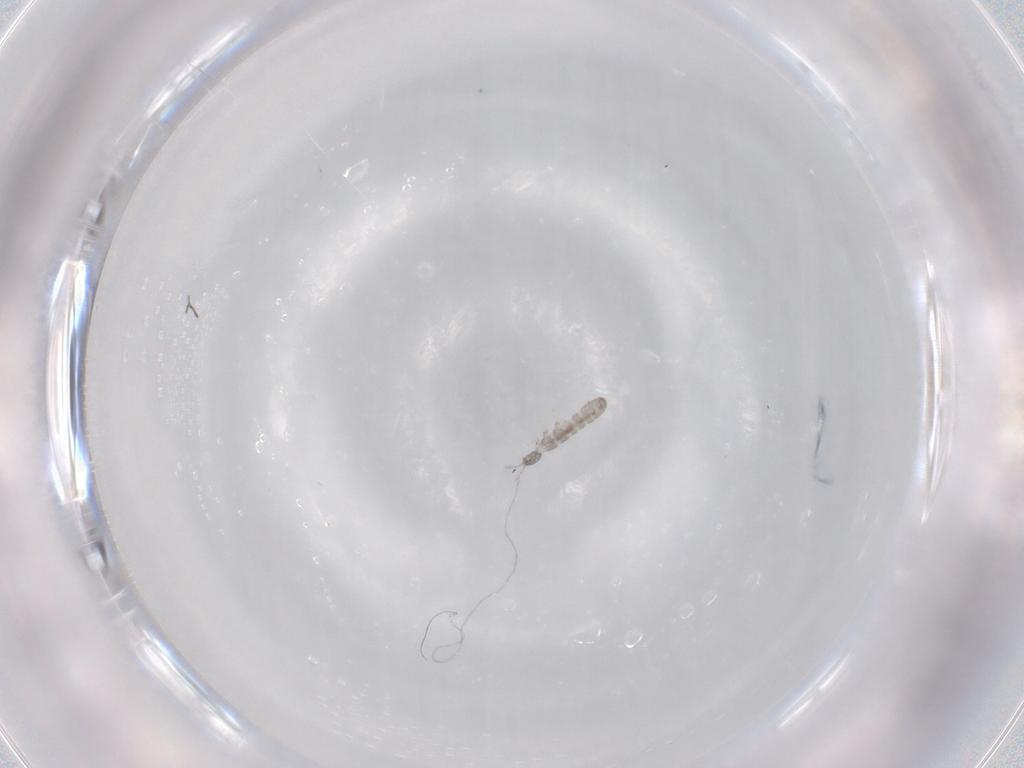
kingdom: Animalia
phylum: Arthropoda
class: Collembola
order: Entomobryomorpha
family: Isotomidae
